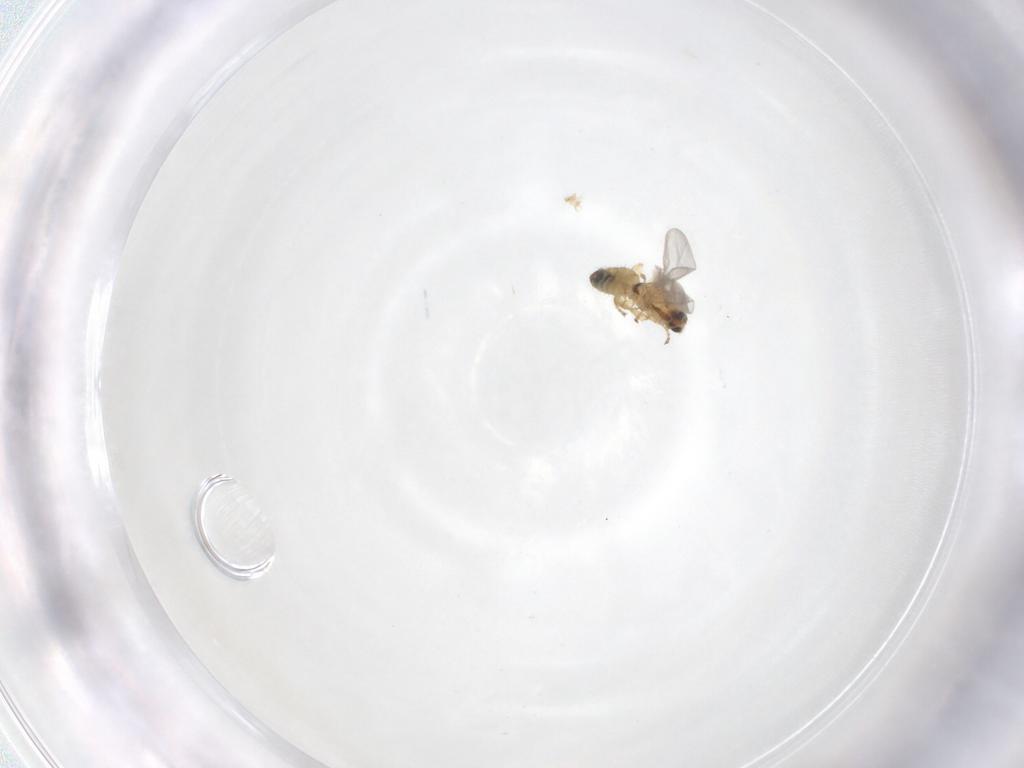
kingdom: Animalia
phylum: Arthropoda
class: Insecta
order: Diptera
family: Agromyzidae
